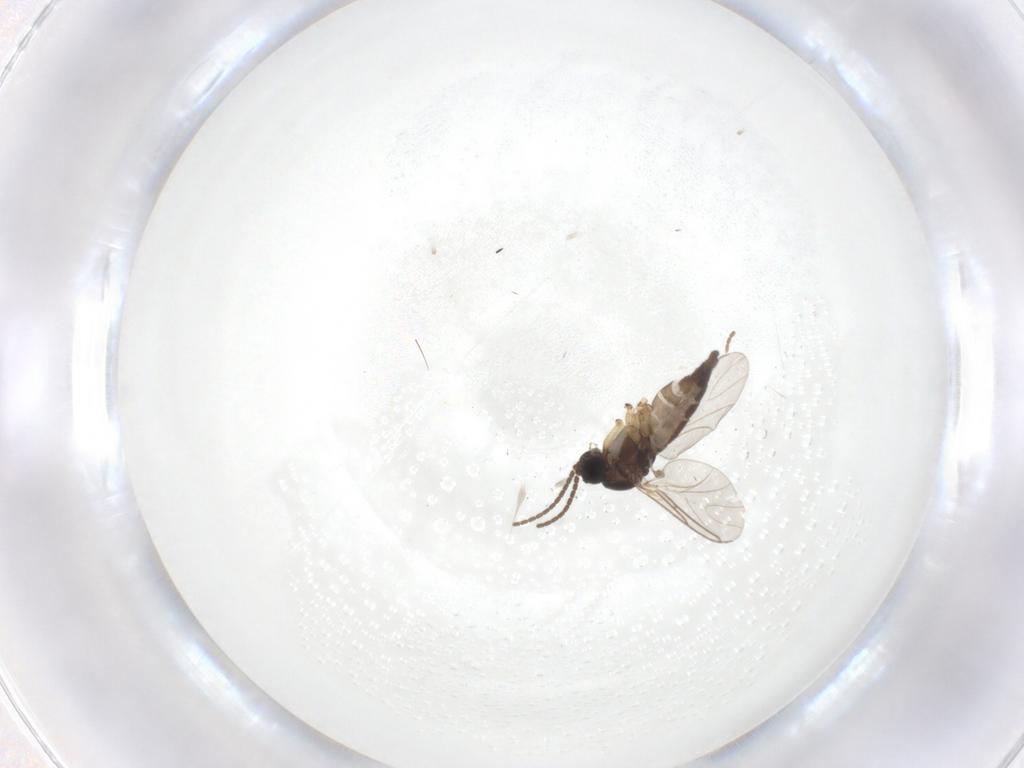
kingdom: Animalia
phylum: Arthropoda
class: Insecta
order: Diptera
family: Sciaridae
